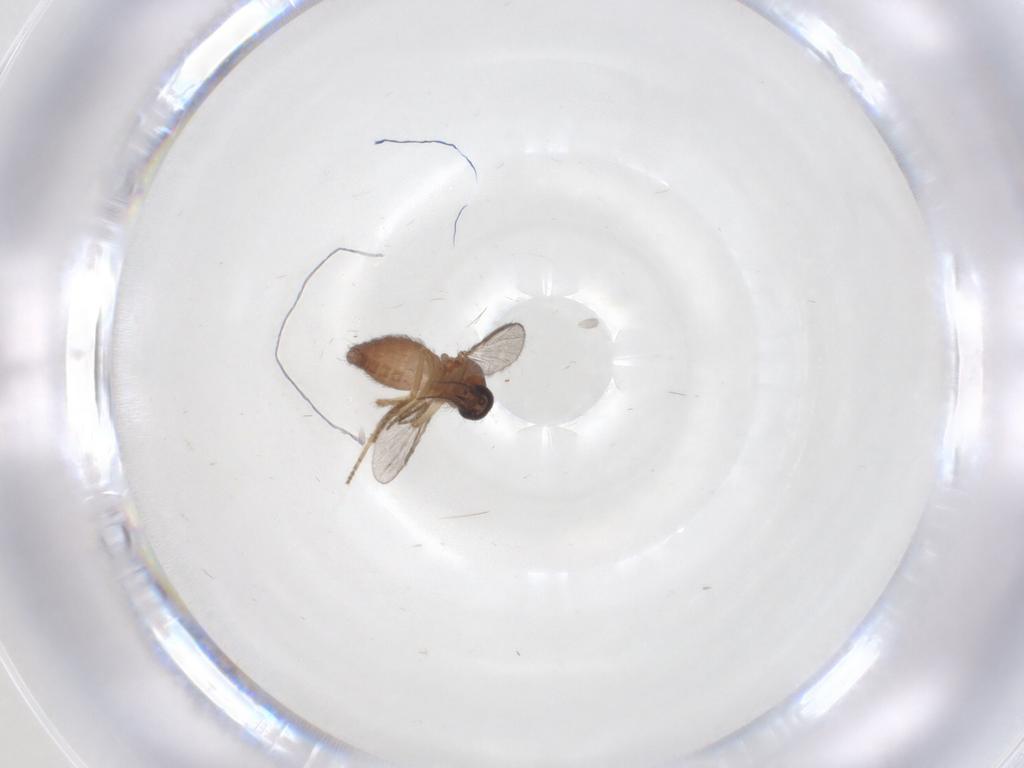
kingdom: Animalia
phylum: Arthropoda
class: Insecta
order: Diptera
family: Ceratopogonidae
